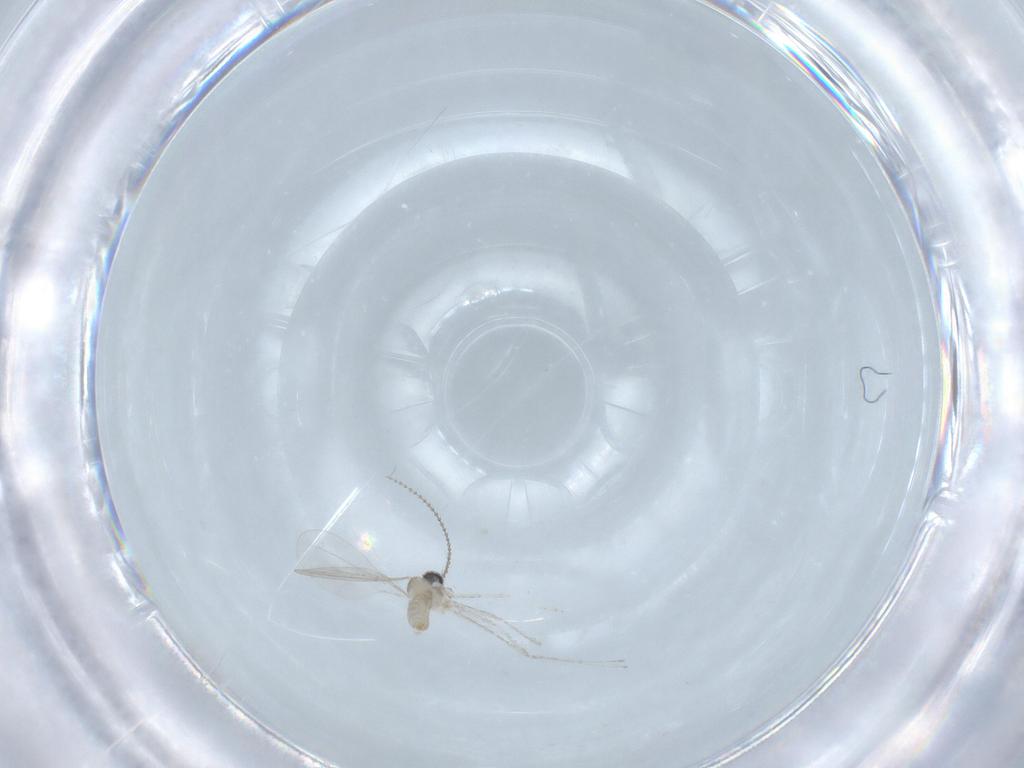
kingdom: Animalia
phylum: Arthropoda
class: Insecta
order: Diptera
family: Cecidomyiidae
